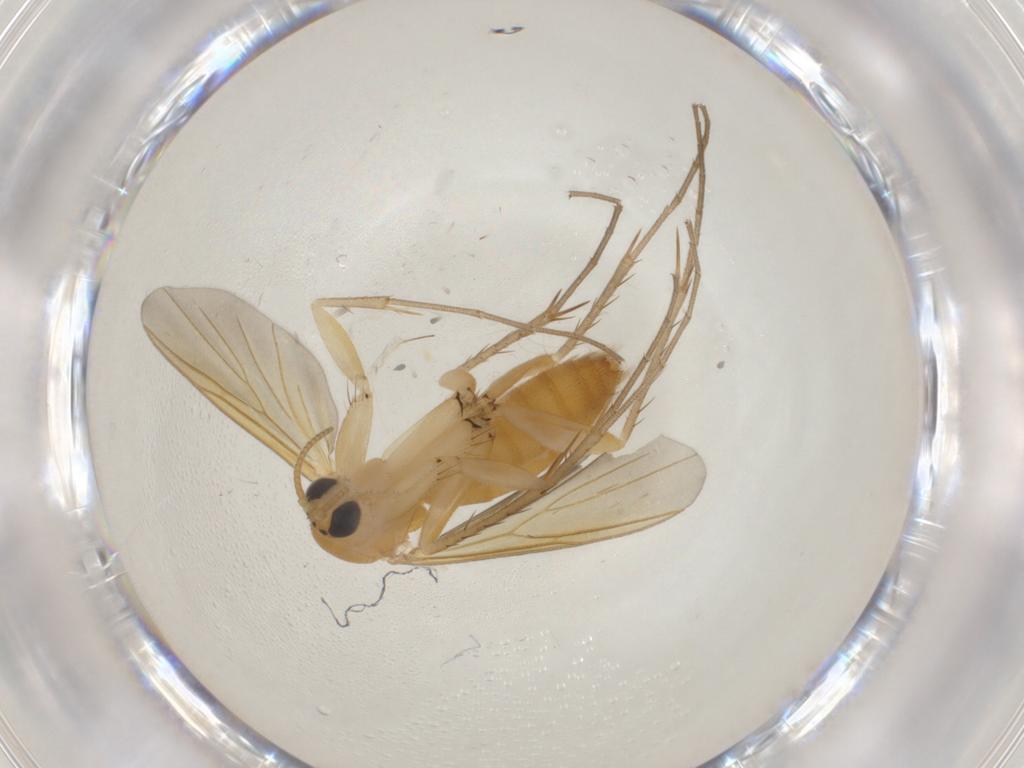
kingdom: Animalia
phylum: Arthropoda
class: Insecta
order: Diptera
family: Mycetophilidae
